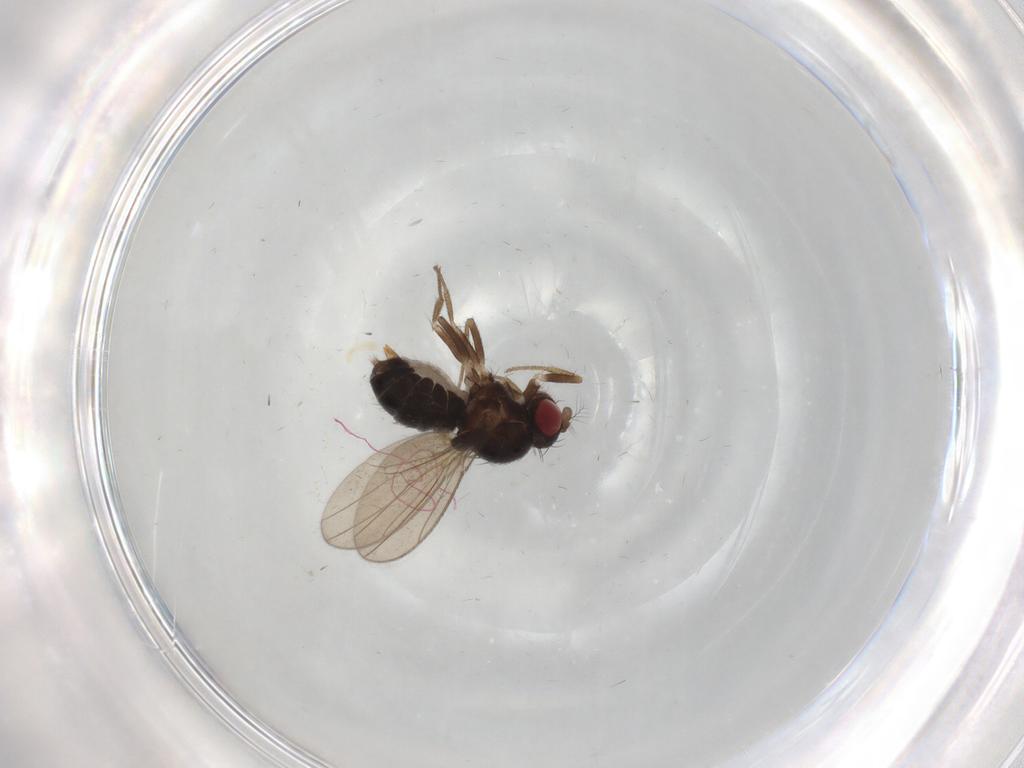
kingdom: Animalia
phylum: Arthropoda
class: Insecta
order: Diptera
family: Drosophilidae
